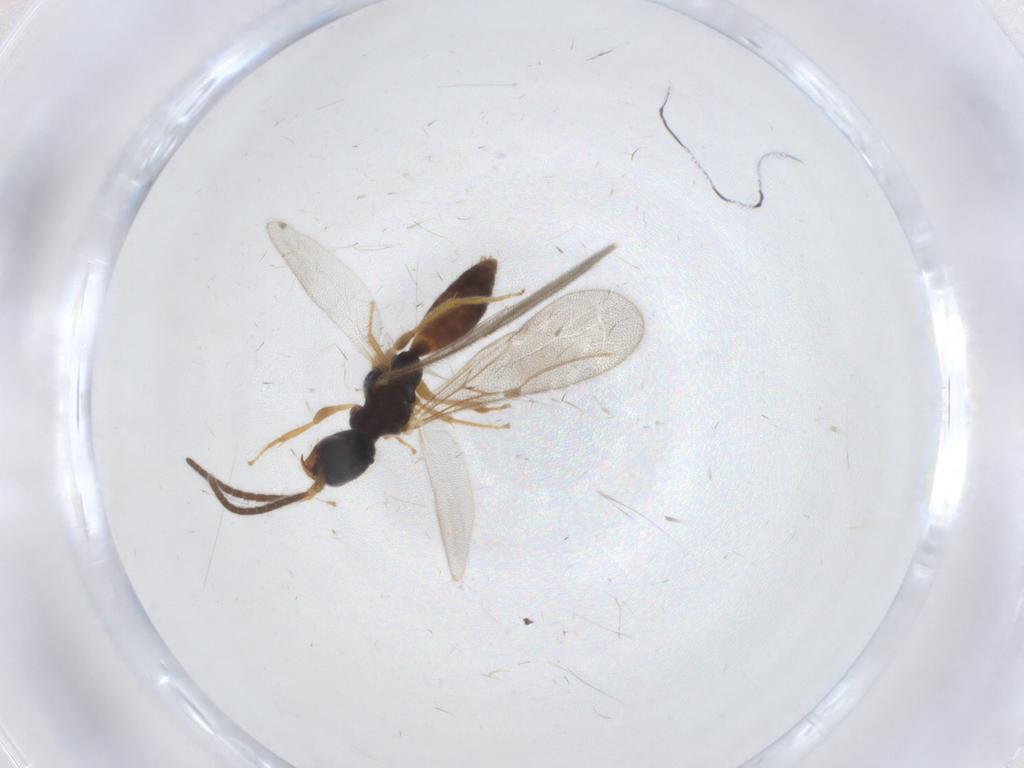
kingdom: Animalia
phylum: Arthropoda
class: Insecta
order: Hymenoptera
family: Bethylidae
